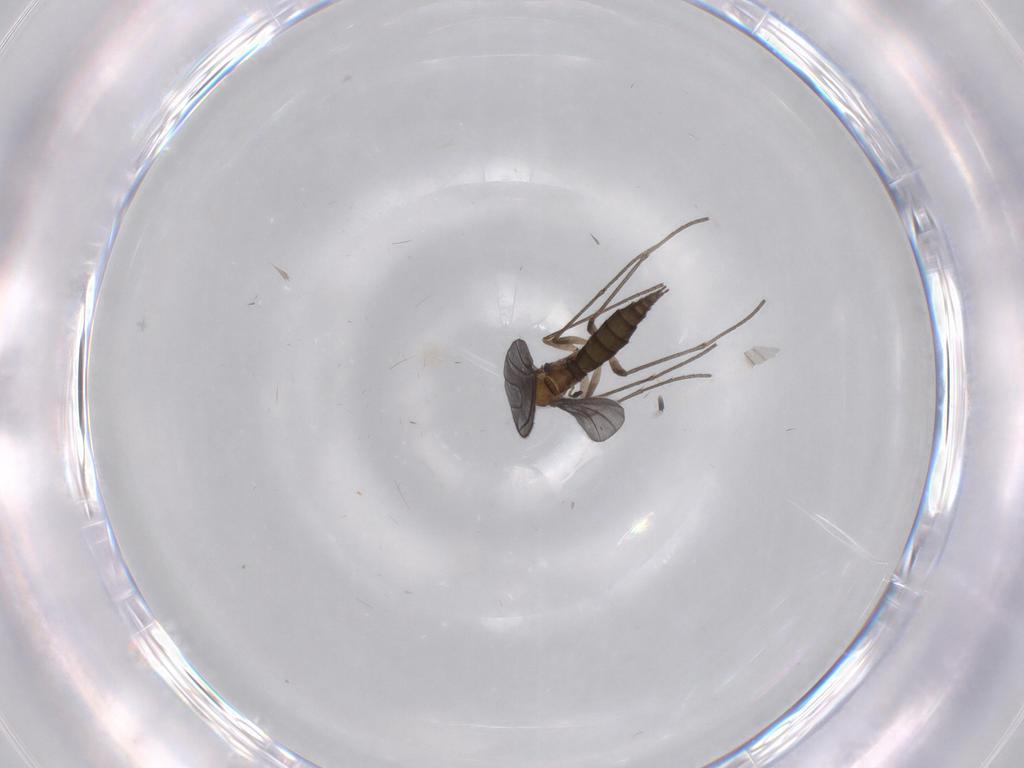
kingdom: Animalia
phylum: Arthropoda
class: Insecta
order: Diptera
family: Sciaridae
